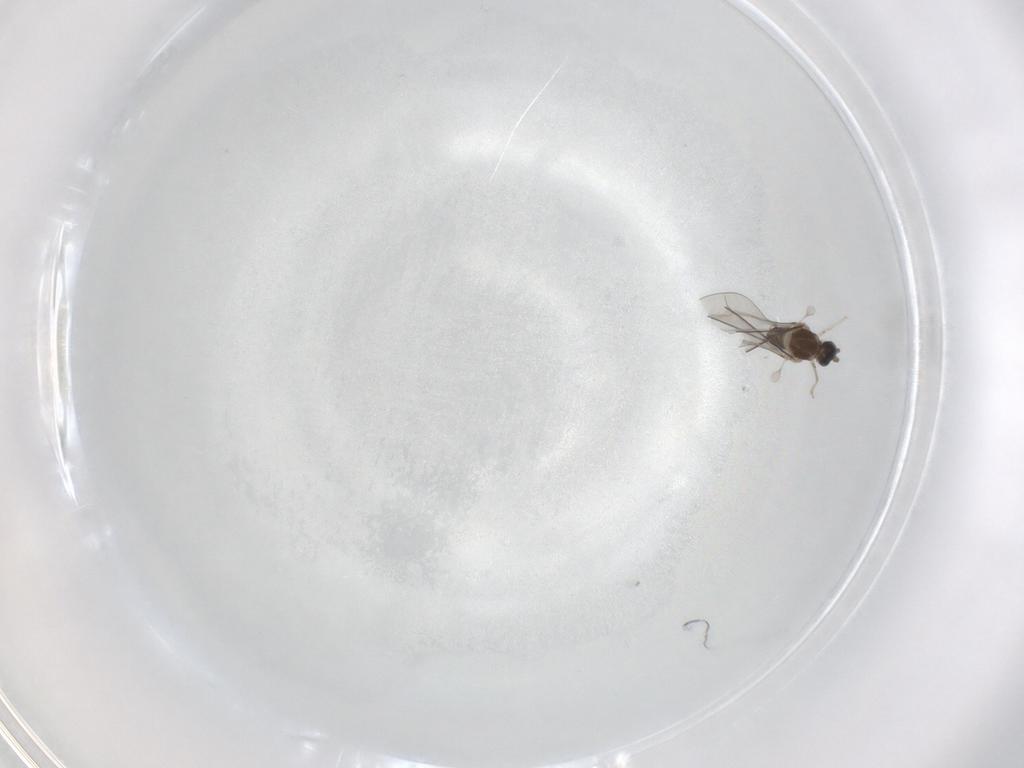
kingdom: Animalia
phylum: Arthropoda
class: Insecta
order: Diptera
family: Cecidomyiidae
